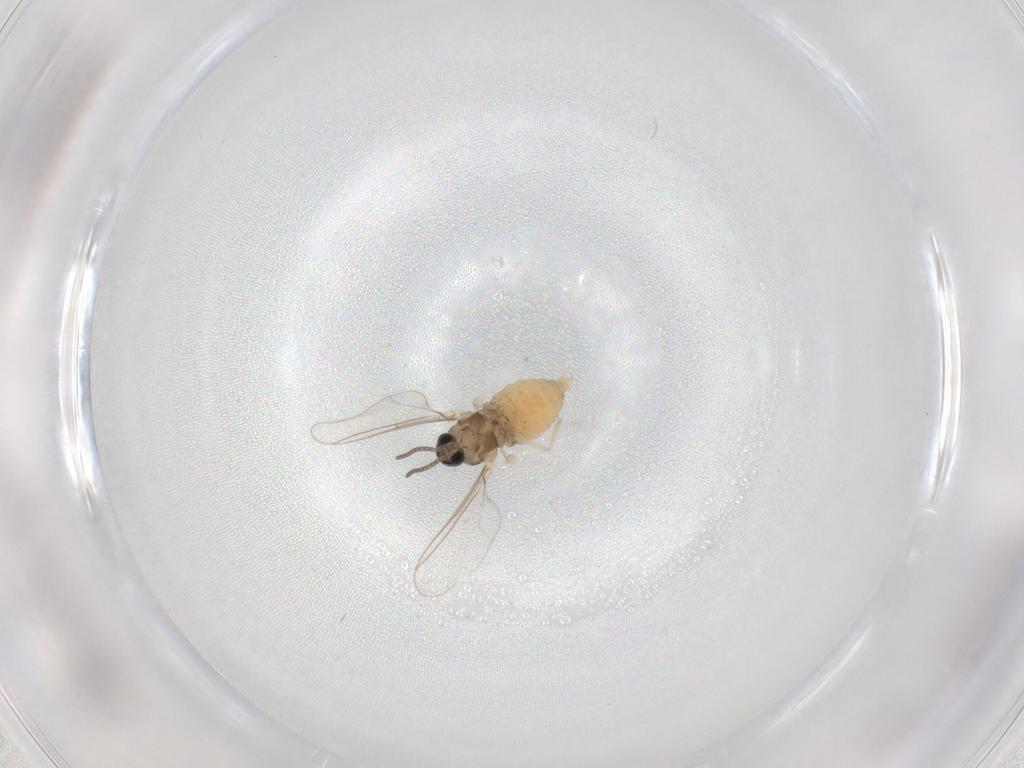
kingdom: Animalia
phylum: Arthropoda
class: Insecta
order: Diptera
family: Cecidomyiidae
